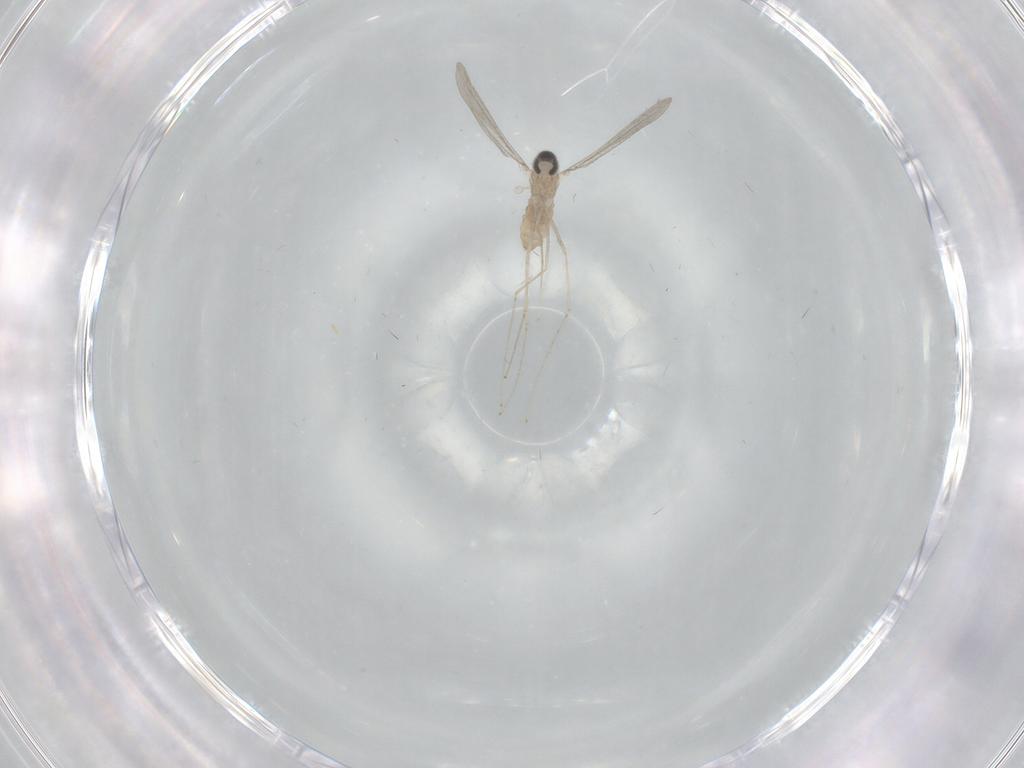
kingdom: Animalia
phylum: Arthropoda
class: Insecta
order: Diptera
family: Cecidomyiidae
